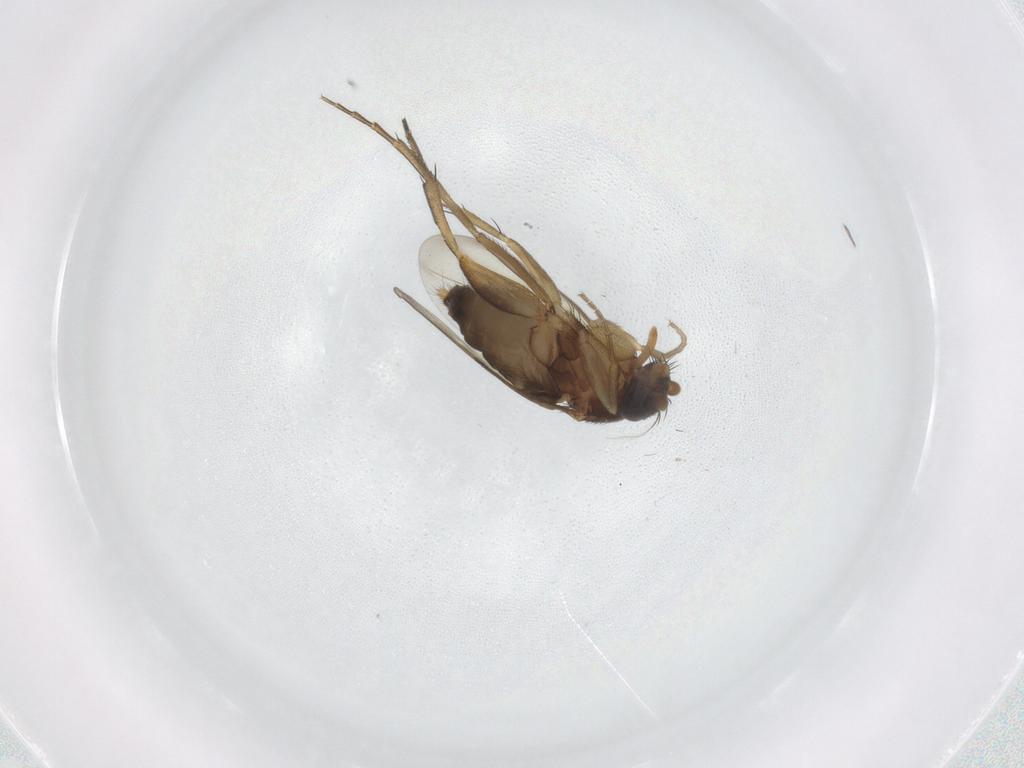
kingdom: Animalia
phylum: Arthropoda
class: Insecta
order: Diptera
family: Phoridae
